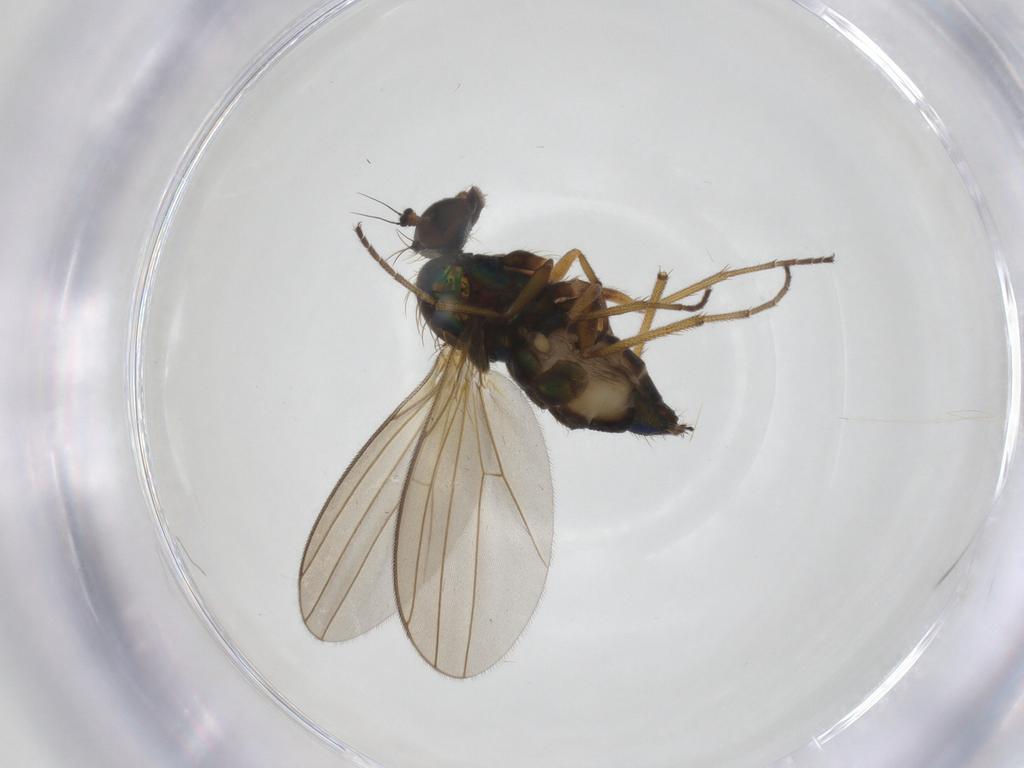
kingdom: Animalia
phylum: Arthropoda
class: Insecta
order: Diptera
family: Dolichopodidae
